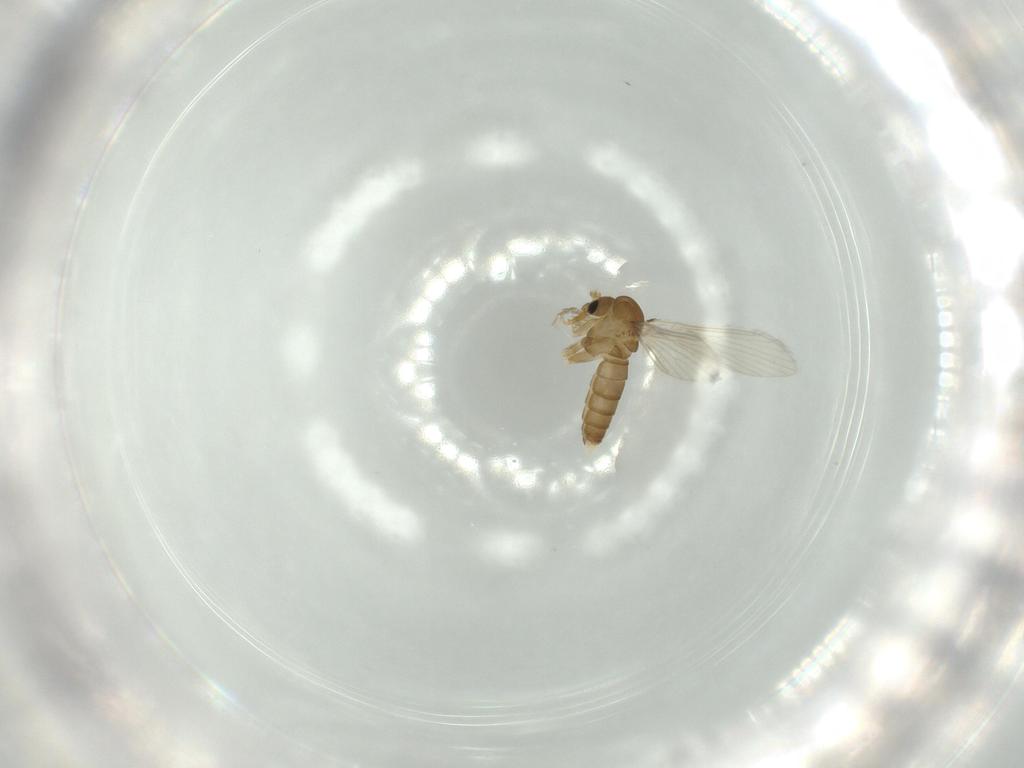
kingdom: Animalia
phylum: Arthropoda
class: Insecta
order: Diptera
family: Psychodidae
